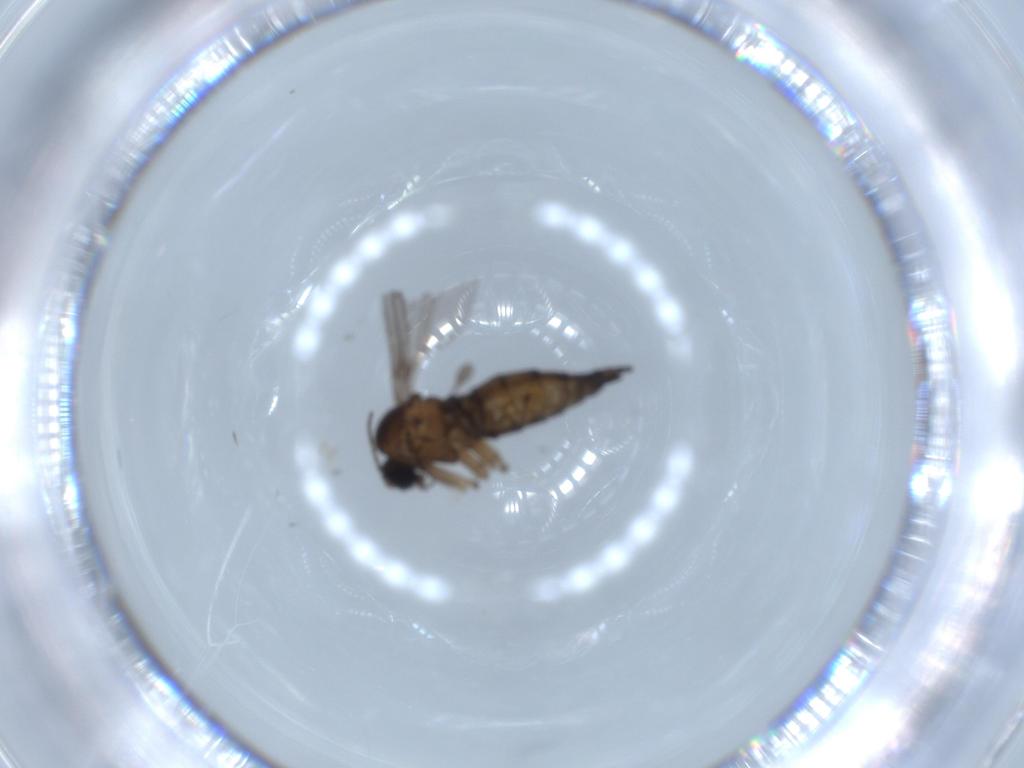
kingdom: Animalia
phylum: Arthropoda
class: Insecta
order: Diptera
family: Sciaridae
